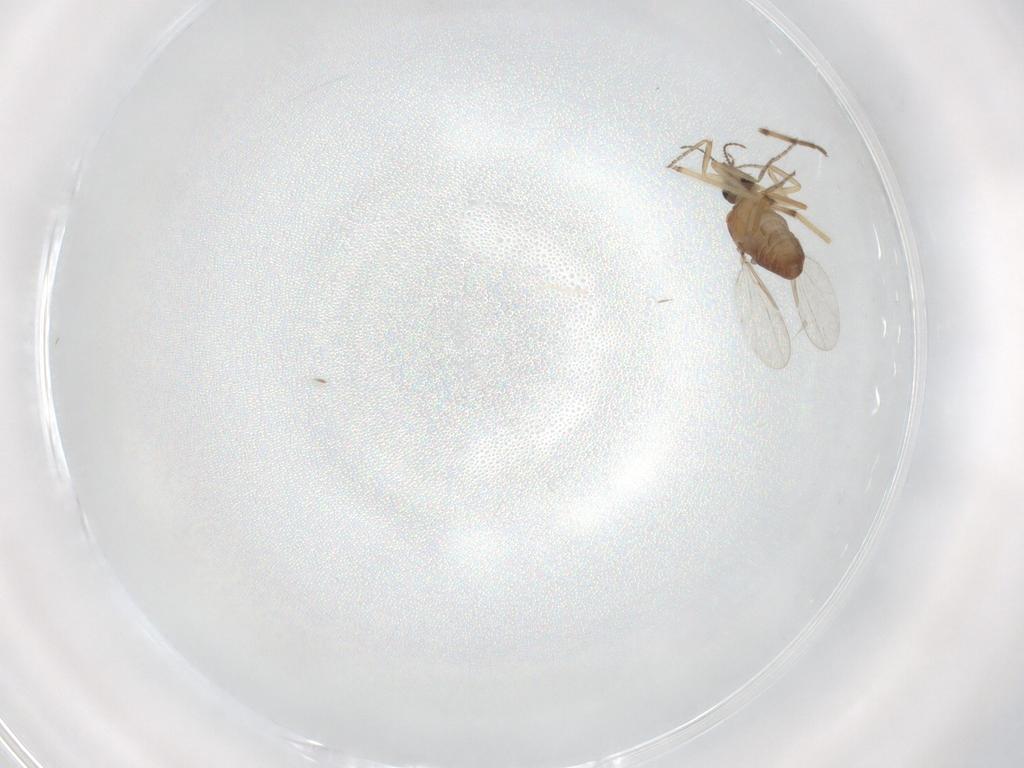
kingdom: Animalia
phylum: Arthropoda
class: Insecta
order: Diptera
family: Ceratopogonidae
